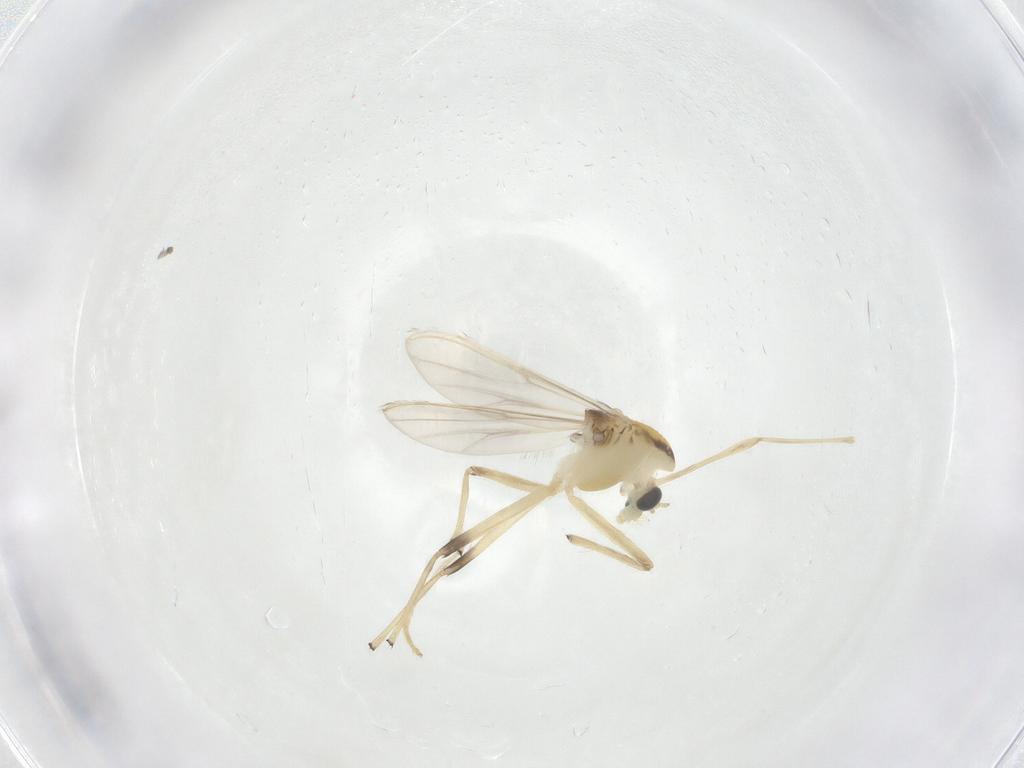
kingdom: Animalia
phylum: Arthropoda
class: Insecta
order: Diptera
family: Chironomidae
